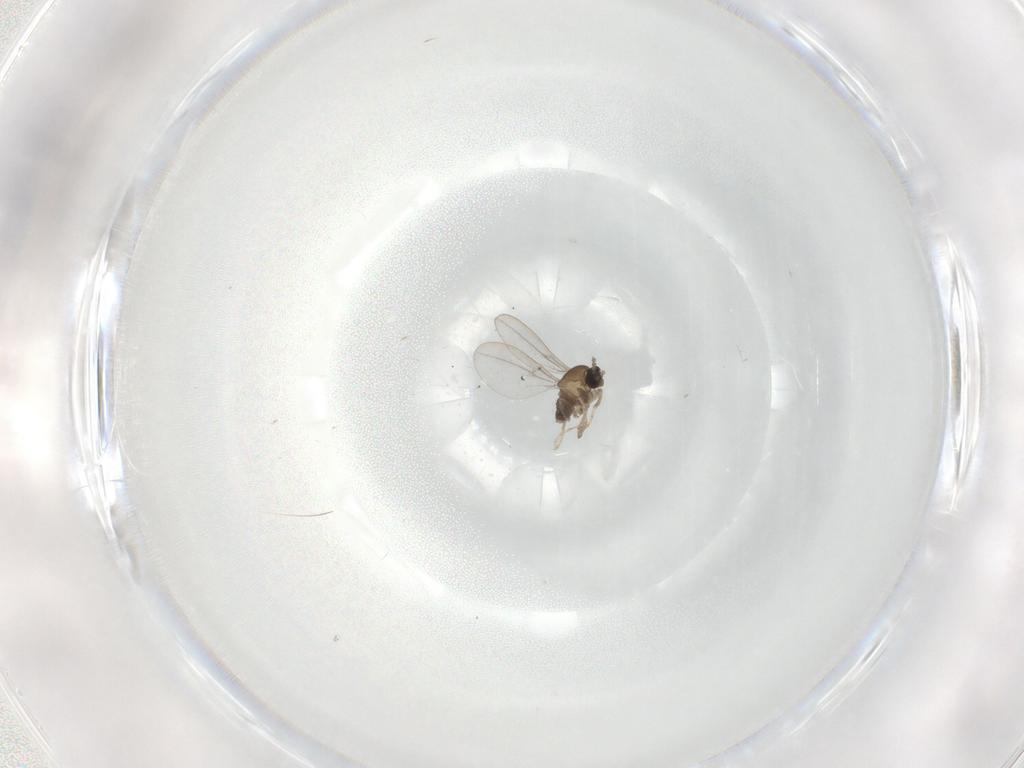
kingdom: Animalia
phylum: Arthropoda
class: Insecta
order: Diptera
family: Cecidomyiidae
